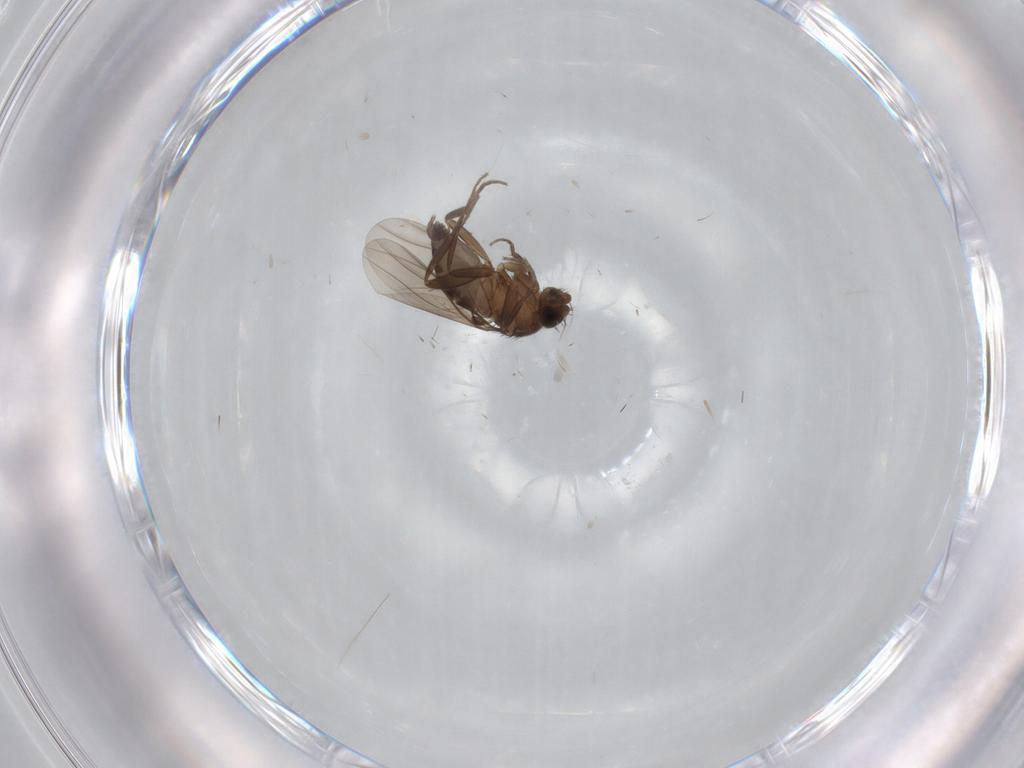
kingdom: Animalia
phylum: Arthropoda
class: Insecta
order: Diptera
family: Phoridae
